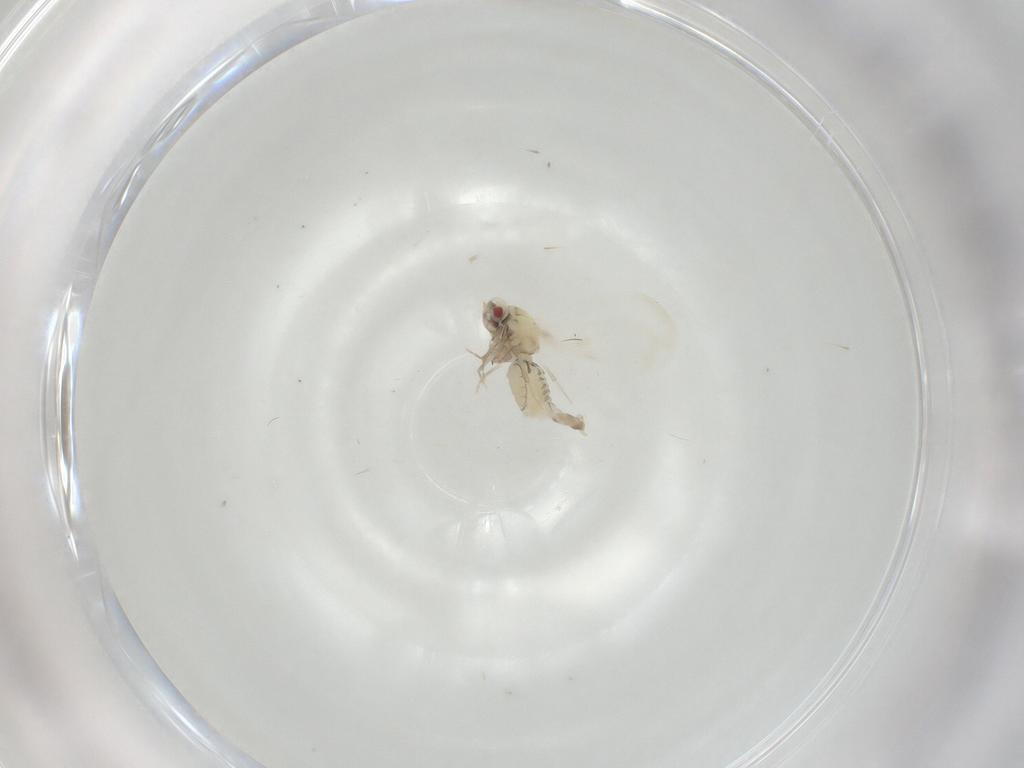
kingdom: Animalia
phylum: Arthropoda
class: Insecta
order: Hemiptera
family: Aleyrodidae
